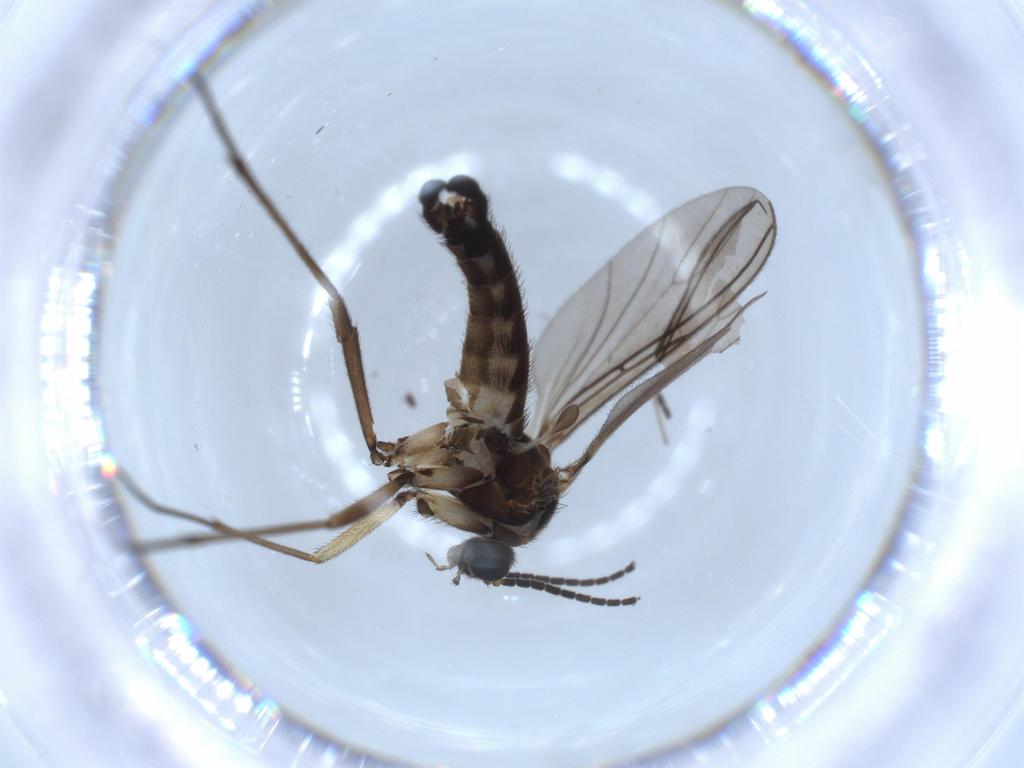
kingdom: Animalia
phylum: Arthropoda
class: Insecta
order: Diptera
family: Sciaridae
